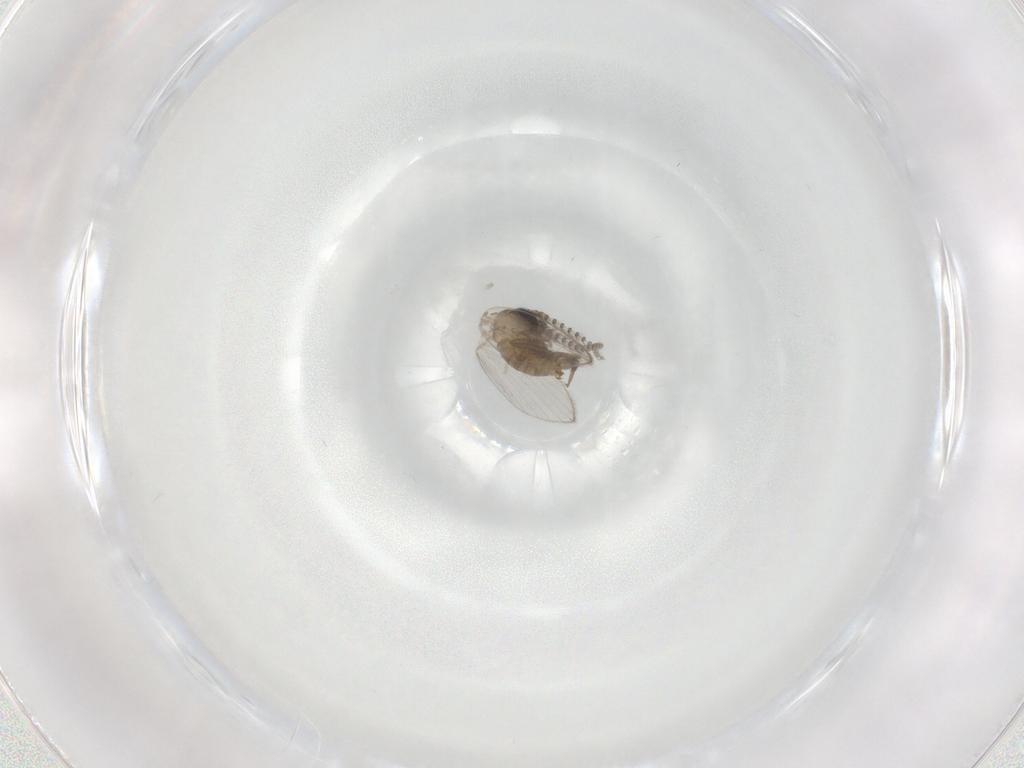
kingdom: Animalia
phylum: Arthropoda
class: Insecta
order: Diptera
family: Psychodidae
